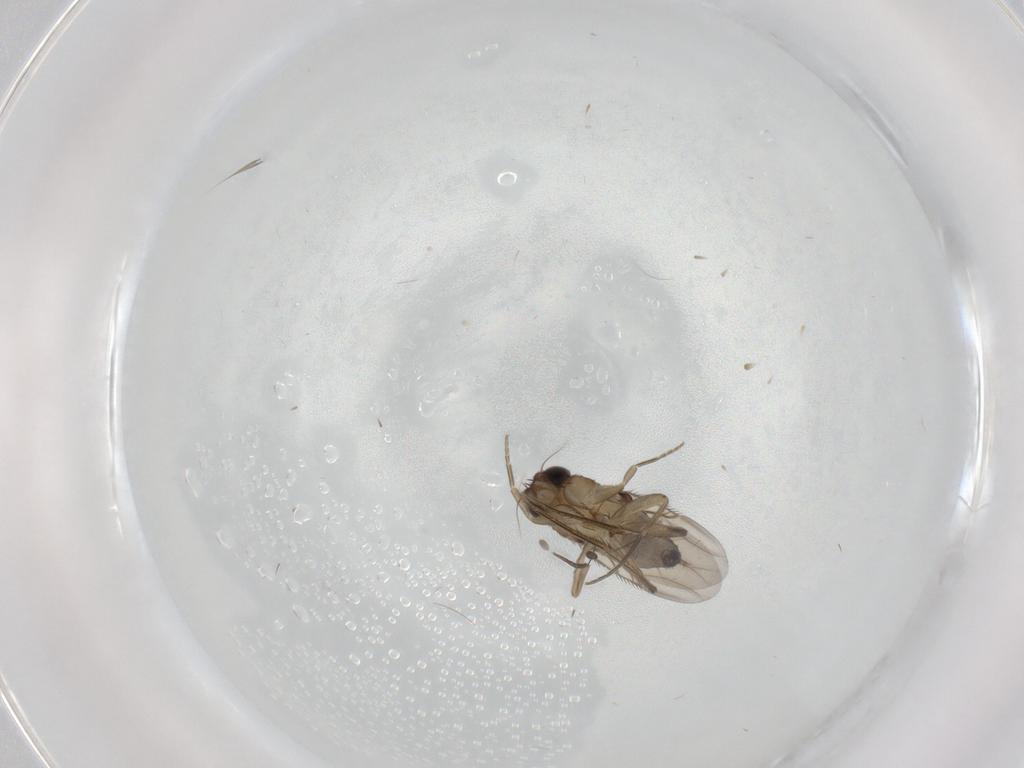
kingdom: Animalia
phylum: Arthropoda
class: Insecta
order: Diptera
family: Phoridae
